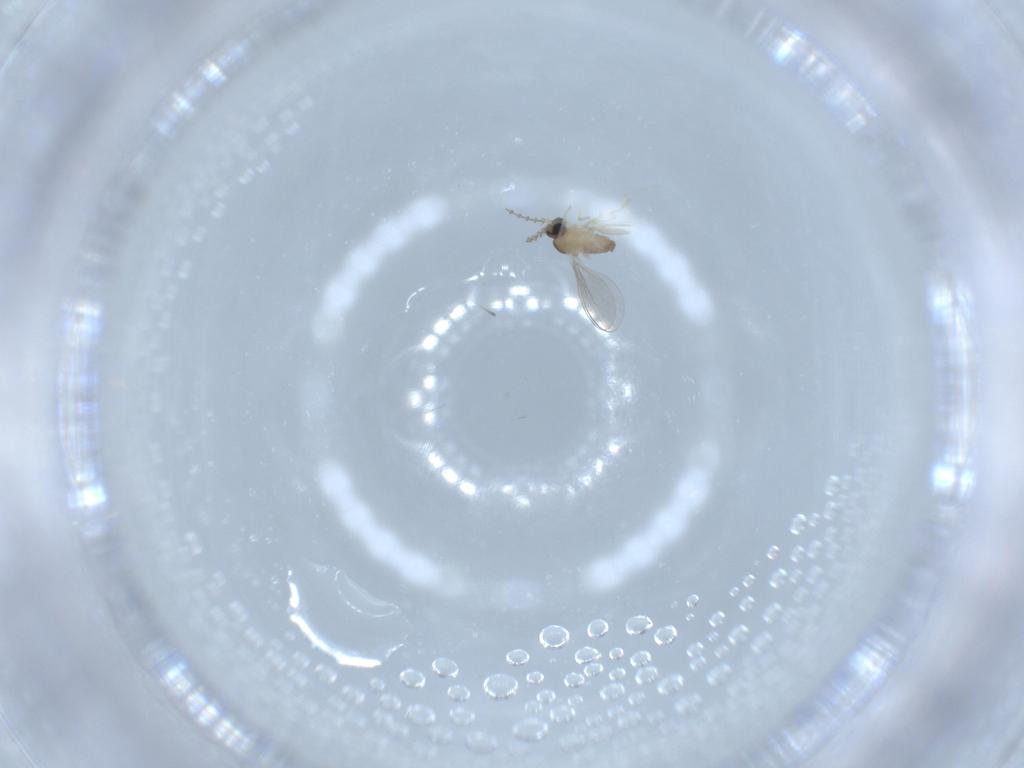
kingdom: Animalia
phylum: Arthropoda
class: Insecta
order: Diptera
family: Cecidomyiidae
